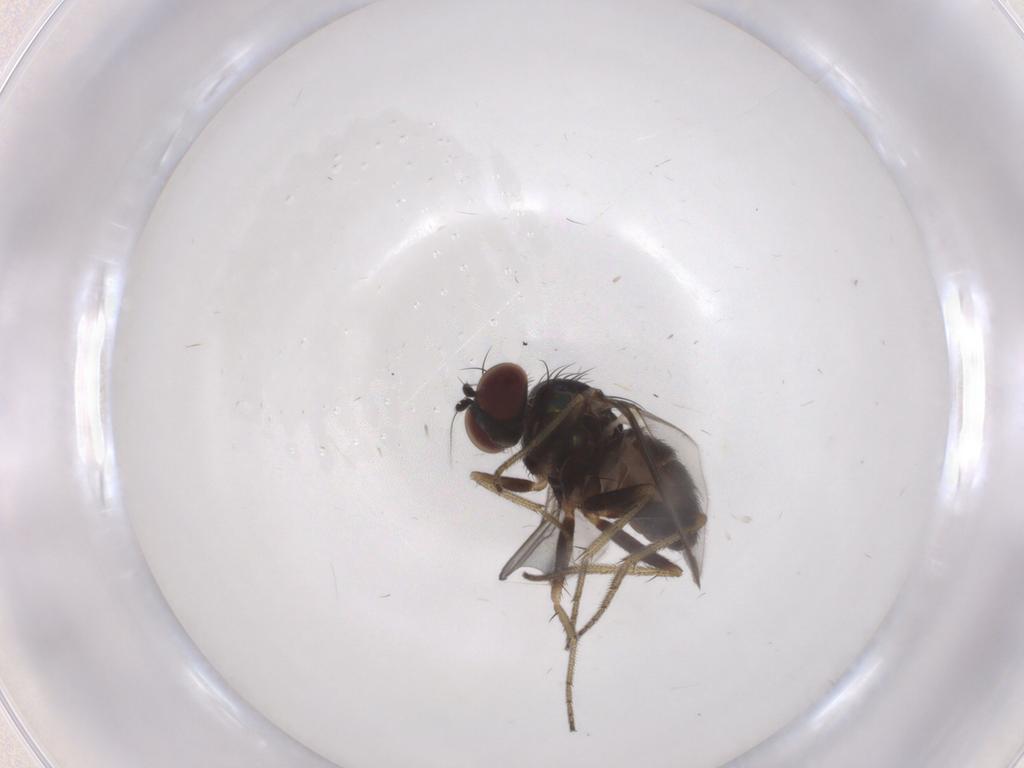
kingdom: Animalia
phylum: Arthropoda
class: Insecta
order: Diptera
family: Dolichopodidae
